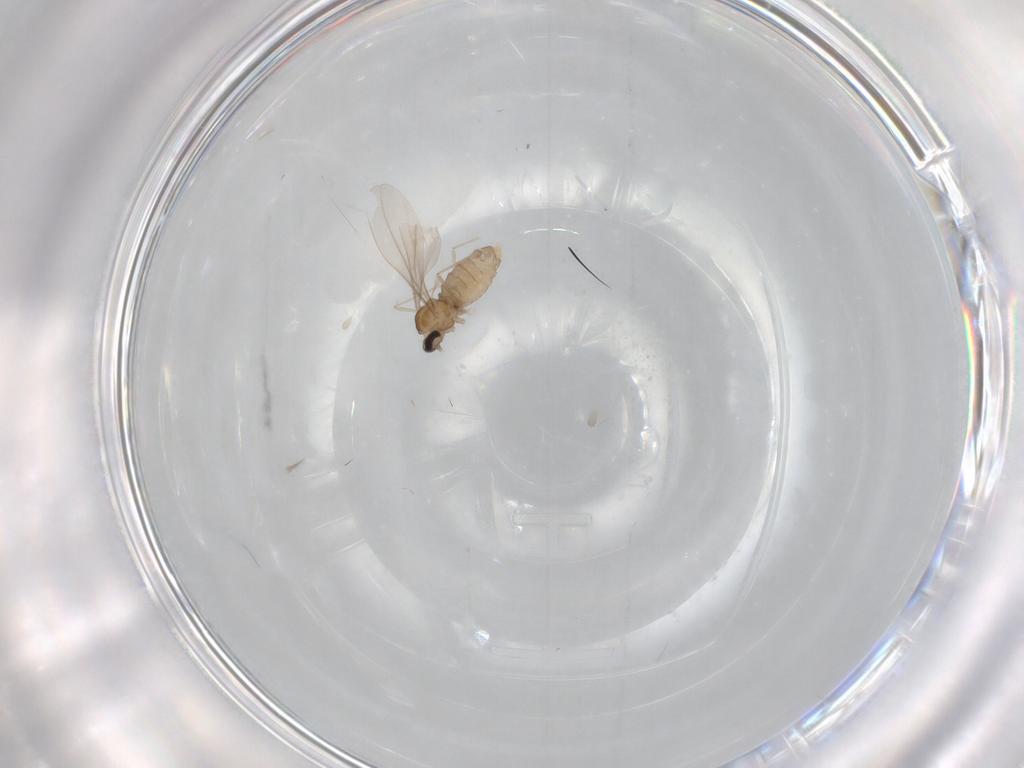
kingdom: Animalia
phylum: Arthropoda
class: Insecta
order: Diptera
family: Cecidomyiidae
